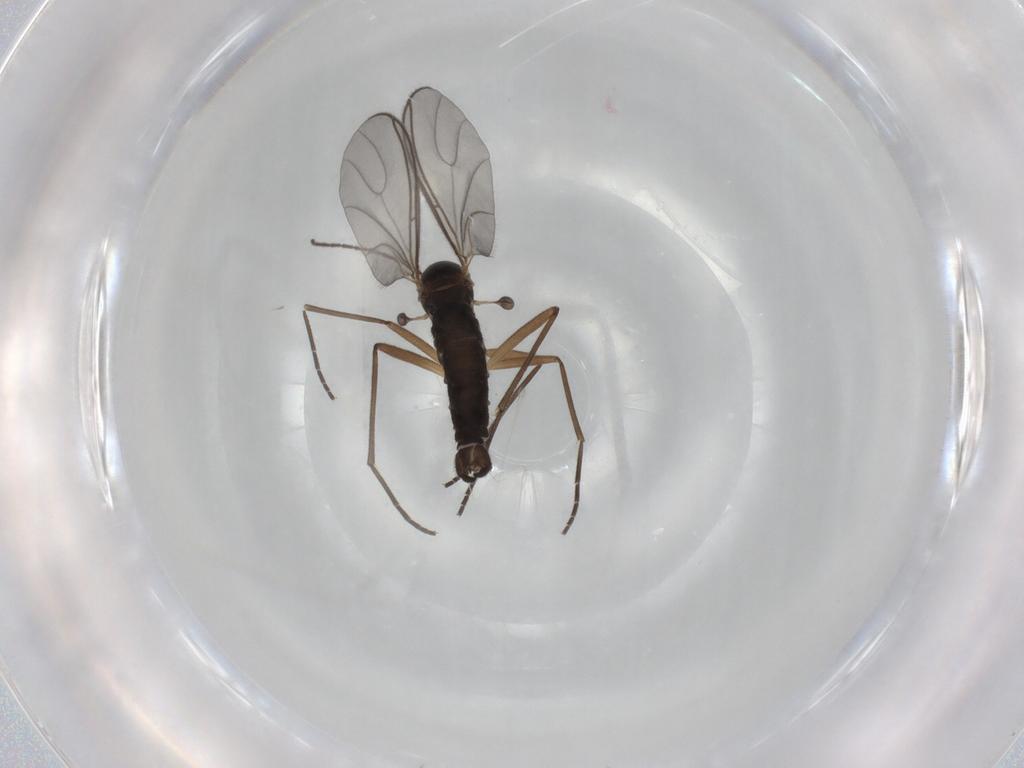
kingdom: Animalia
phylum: Arthropoda
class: Insecta
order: Diptera
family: Sciaridae
